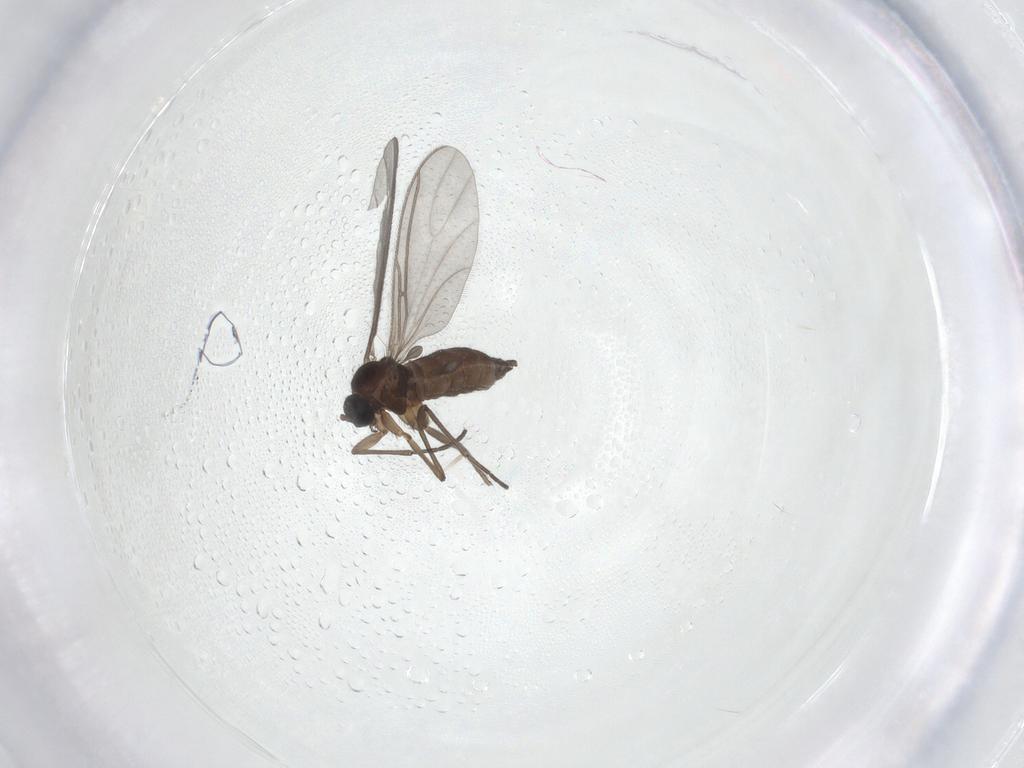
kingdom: Animalia
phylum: Arthropoda
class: Insecta
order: Diptera
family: Sciaridae
